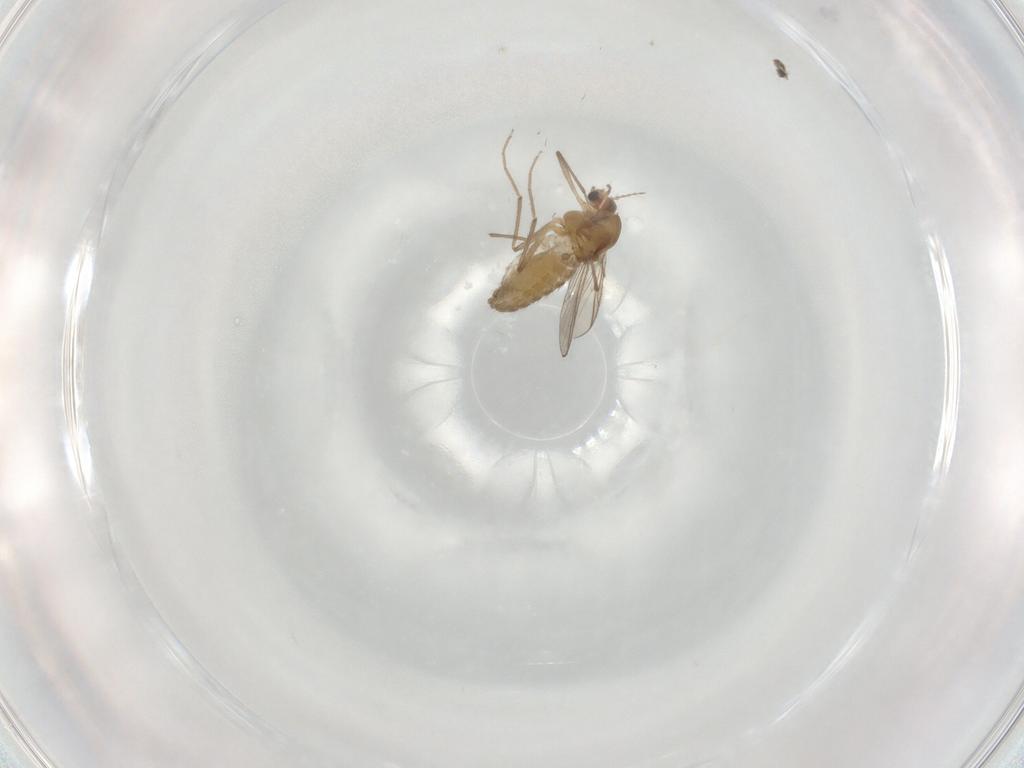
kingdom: Animalia
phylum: Arthropoda
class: Insecta
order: Diptera
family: Chironomidae
